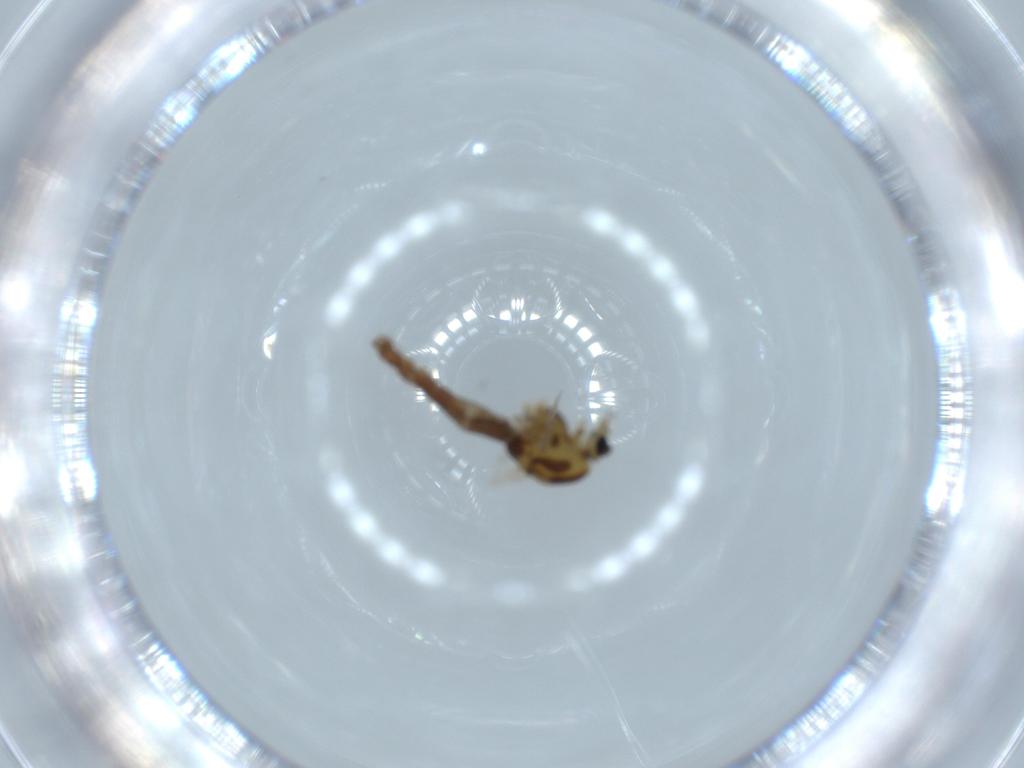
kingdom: Animalia
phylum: Arthropoda
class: Insecta
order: Diptera
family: Chironomidae
